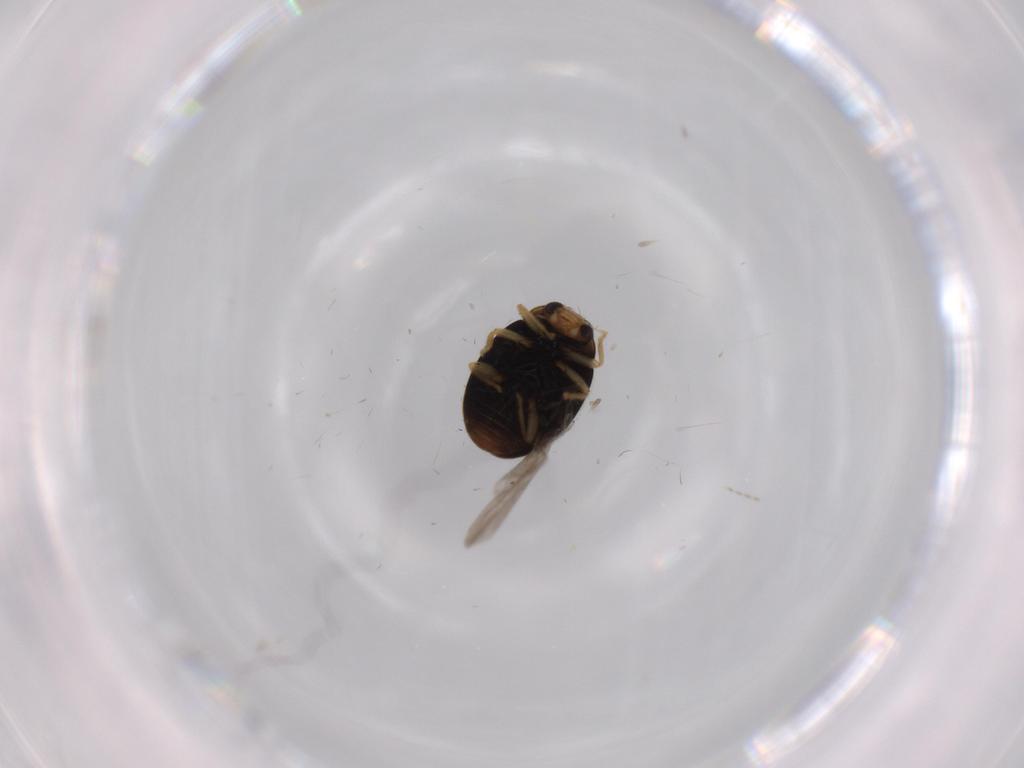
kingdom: Animalia
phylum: Arthropoda
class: Insecta
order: Coleoptera
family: Coccinellidae
